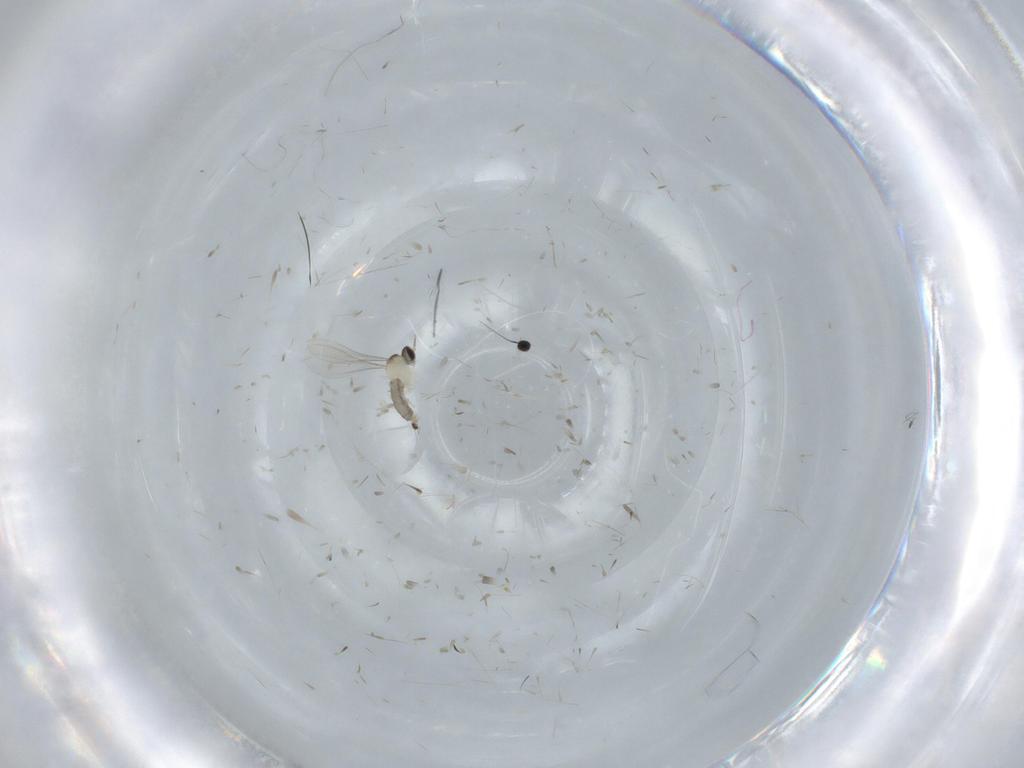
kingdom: Animalia
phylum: Arthropoda
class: Insecta
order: Diptera
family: Milichiidae
